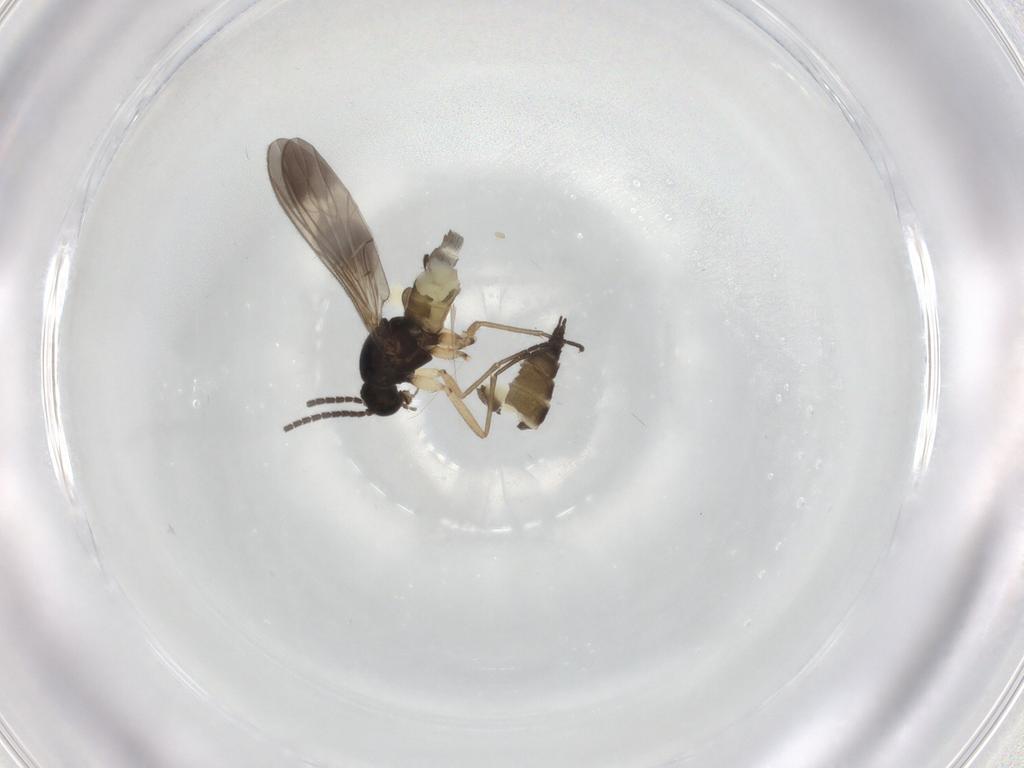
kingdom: Animalia
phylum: Arthropoda
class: Insecta
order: Diptera
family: Sciaridae
